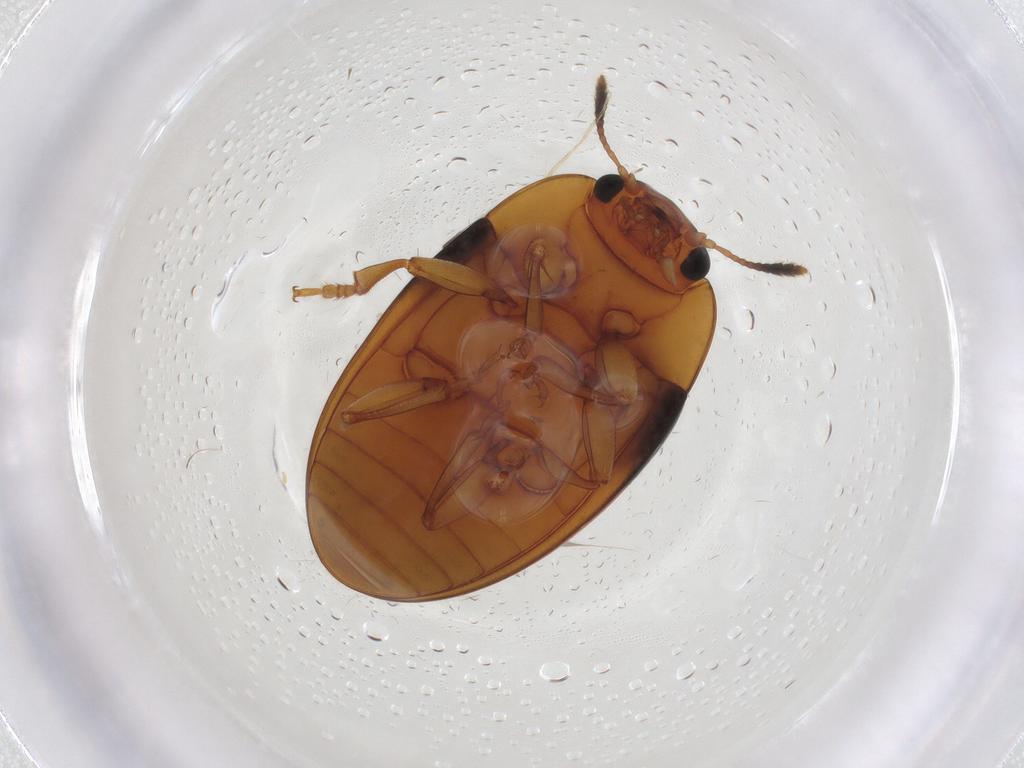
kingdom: Animalia
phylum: Arthropoda
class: Insecta
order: Coleoptera
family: Erotylidae
